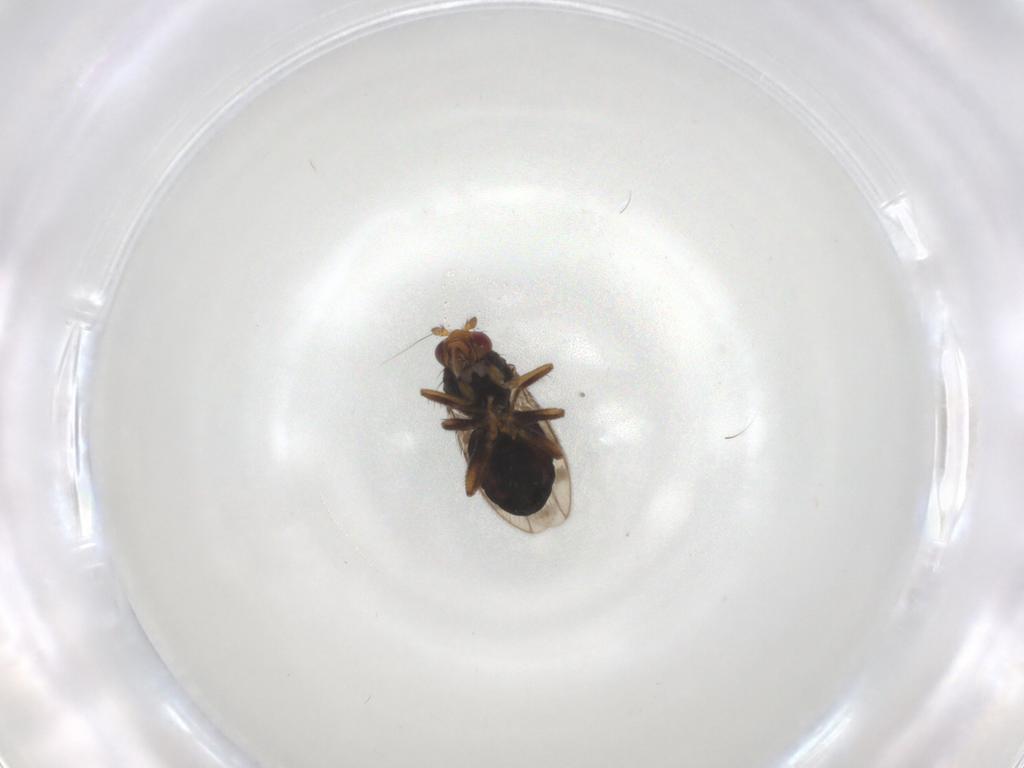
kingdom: Animalia
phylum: Arthropoda
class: Insecta
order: Diptera
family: Sphaeroceridae
